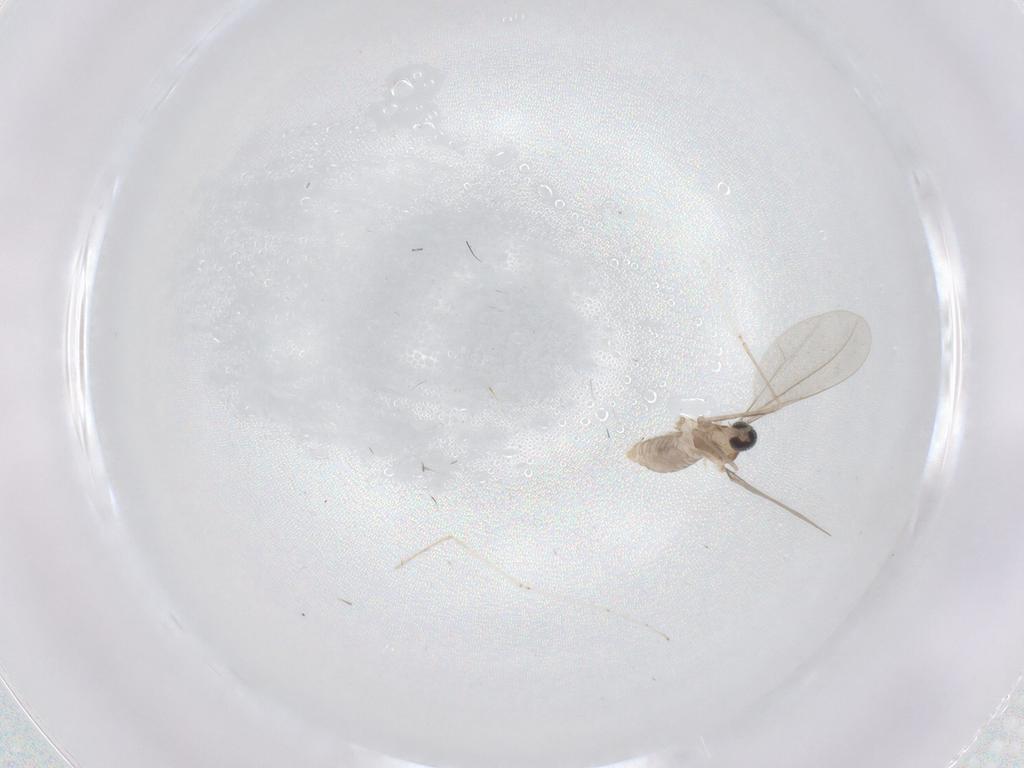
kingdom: Animalia
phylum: Arthropoda
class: Insecta
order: Diptera
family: Cecidomyiidae
